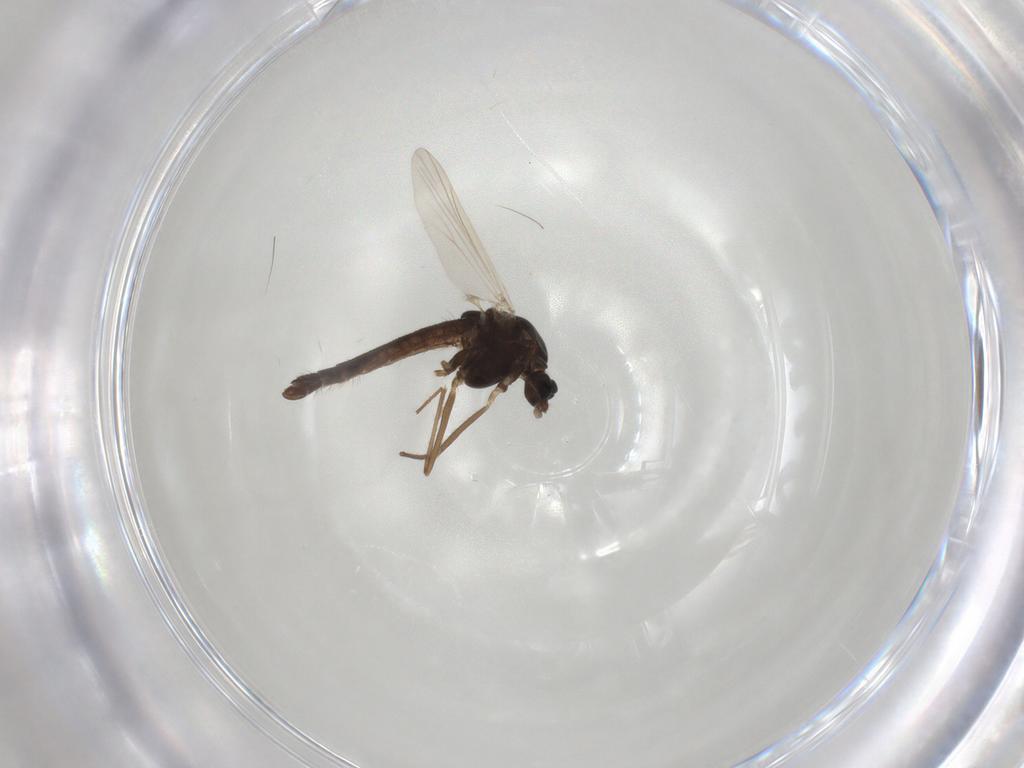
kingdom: Animalia
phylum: Arthropoda
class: Insecta
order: Diptera
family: Chironomidae
